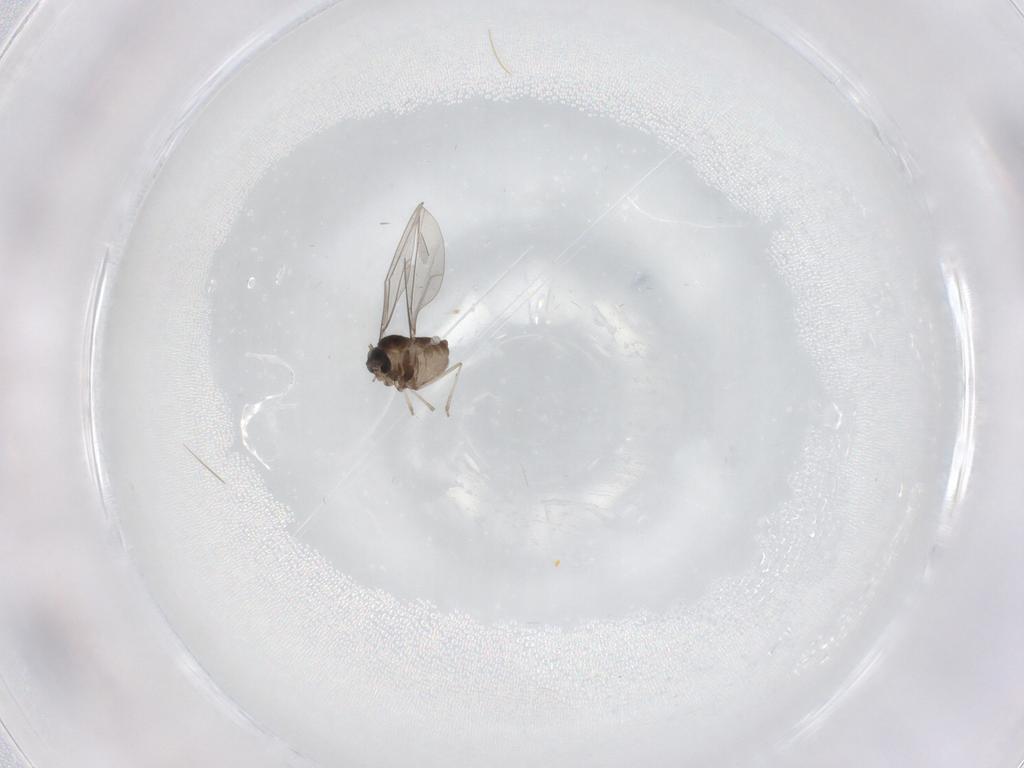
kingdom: Animalia
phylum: Arthropoda
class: Insecta
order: Diptera
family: Cecidomyiidae
